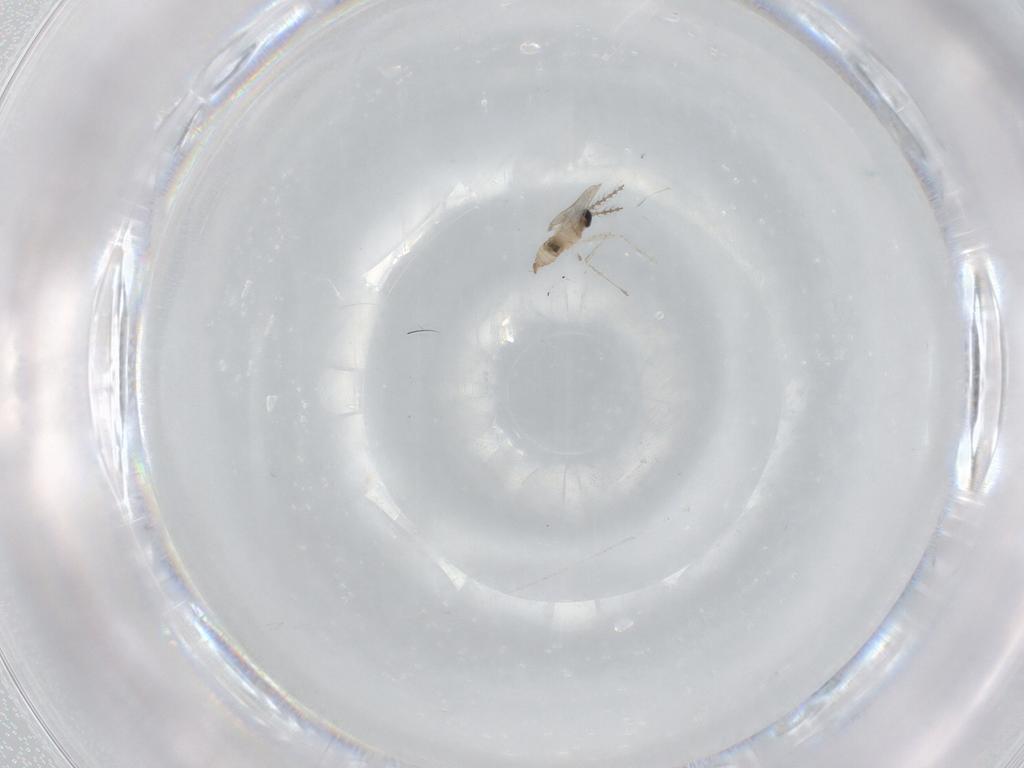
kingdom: Animalia
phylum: Arthropoda
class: Insecta
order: Diptera
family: Cecidomyiidae
